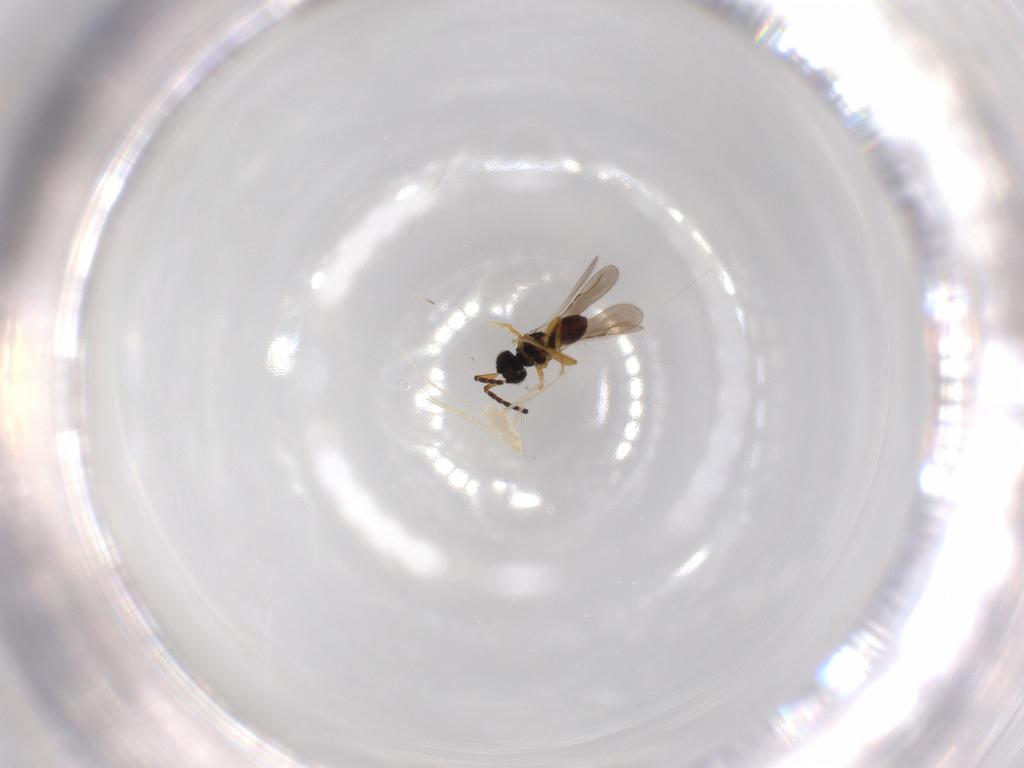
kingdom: Animalia
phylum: Arthropoda
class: Arachnida
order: Trombidiformes
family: Erythraeidae
